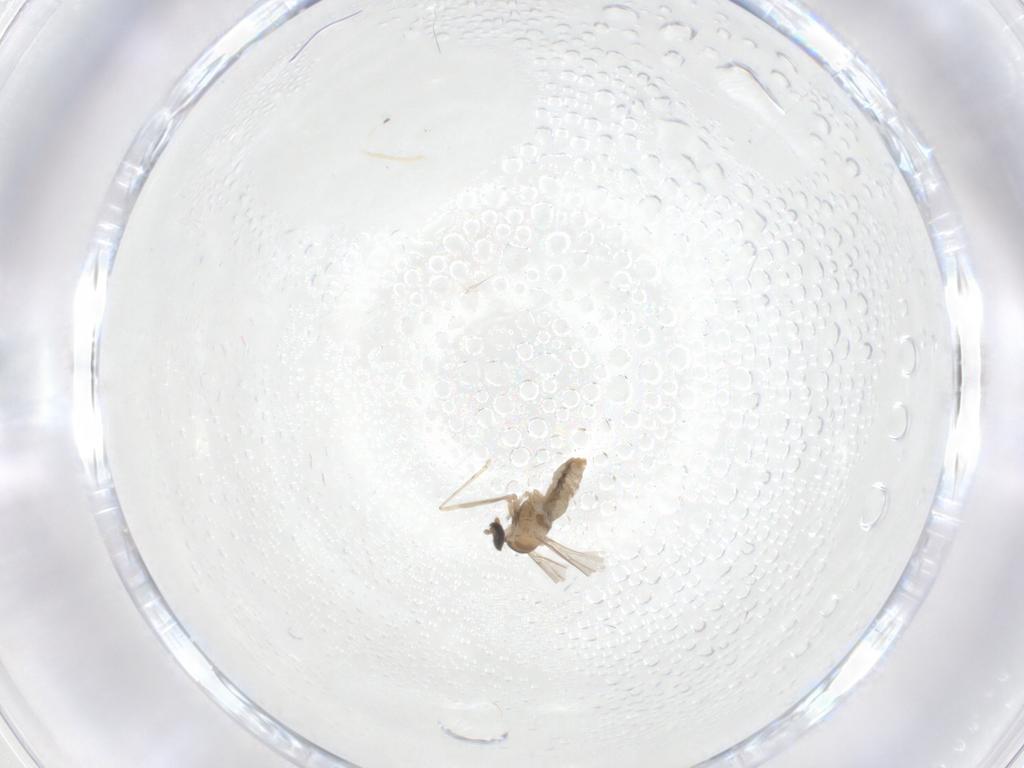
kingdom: Animalia
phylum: Arthropoda
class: Insecta
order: Diptera
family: Cecidomyiidae
